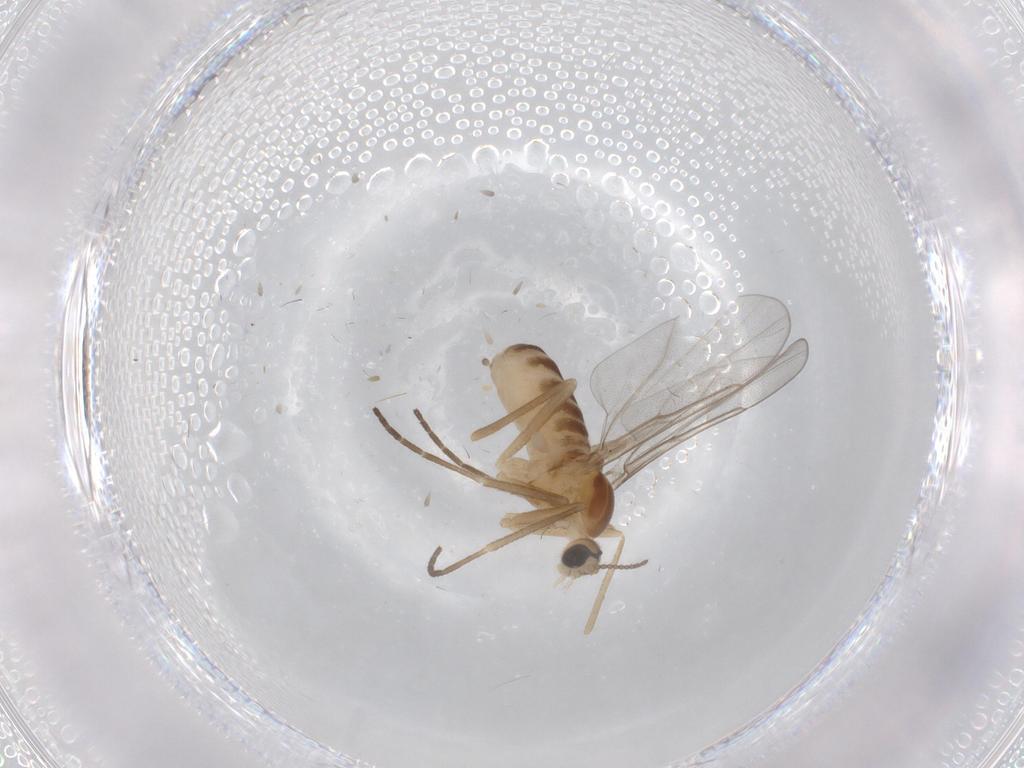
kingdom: Animalia
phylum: Arthropoda
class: Insecta
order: Diptera
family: Cecidomyiidae
